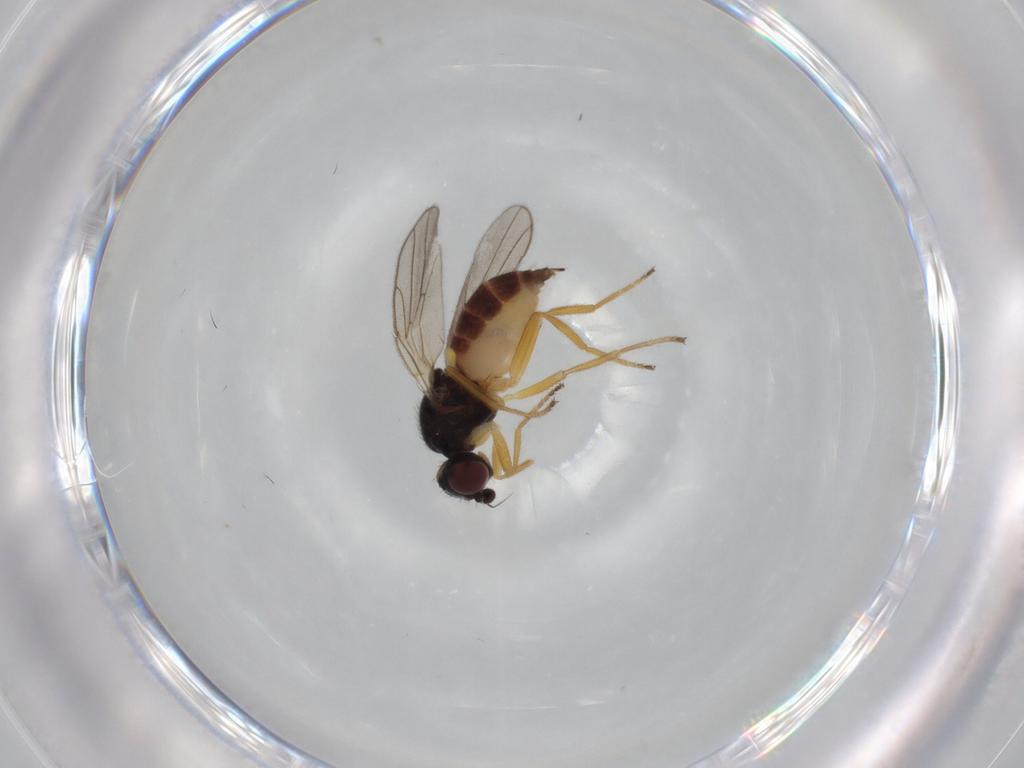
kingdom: Animalia
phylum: Arthropoda
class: Insecta
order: Diptera
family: Chloropidae
